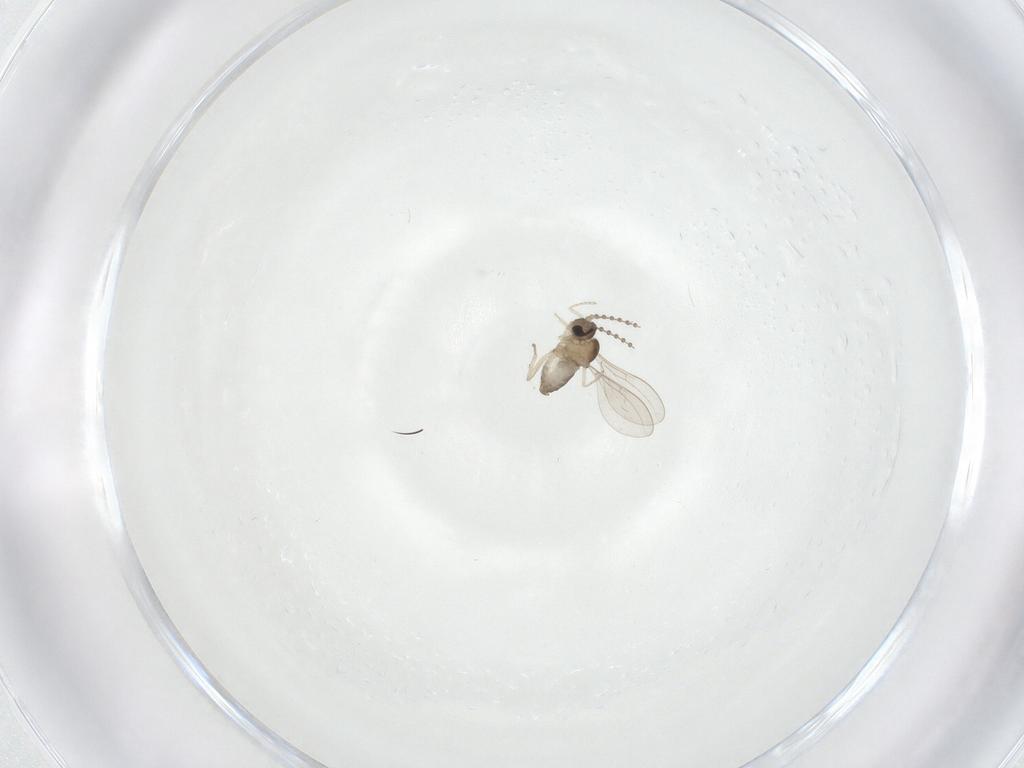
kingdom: Animalia
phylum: Arthropoda
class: Insecta
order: Diptera
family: Cecidomyiidae
